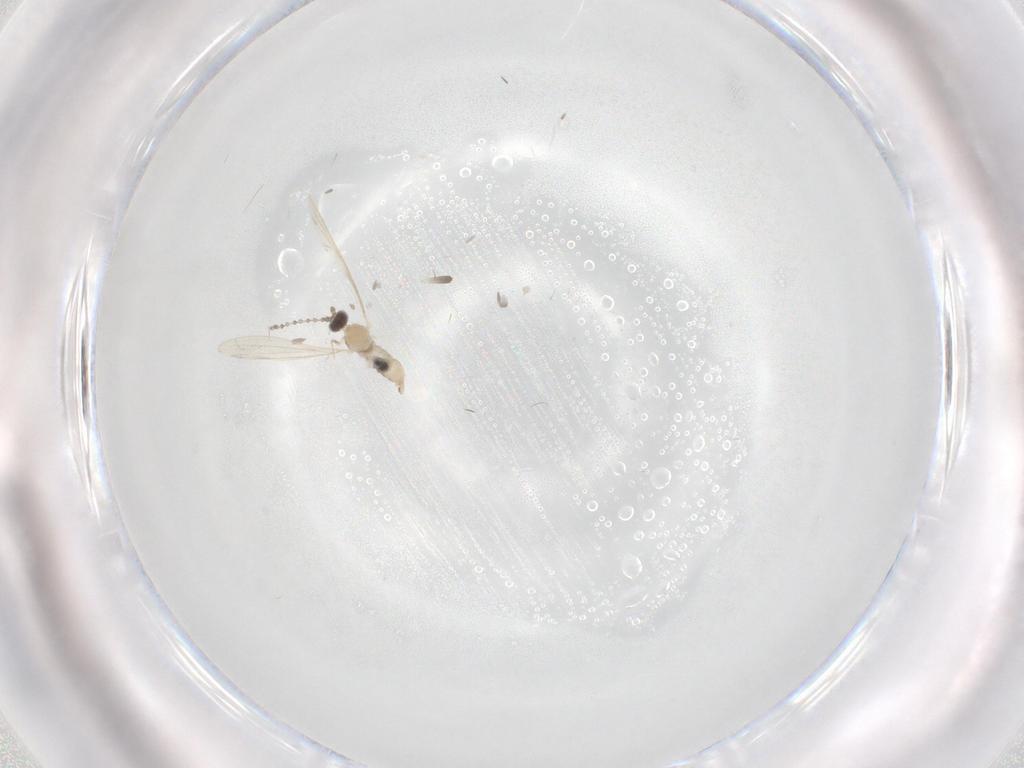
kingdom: Animalia
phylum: Arthropoda
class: Insecta
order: Diptera
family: Cecidomyiidae
